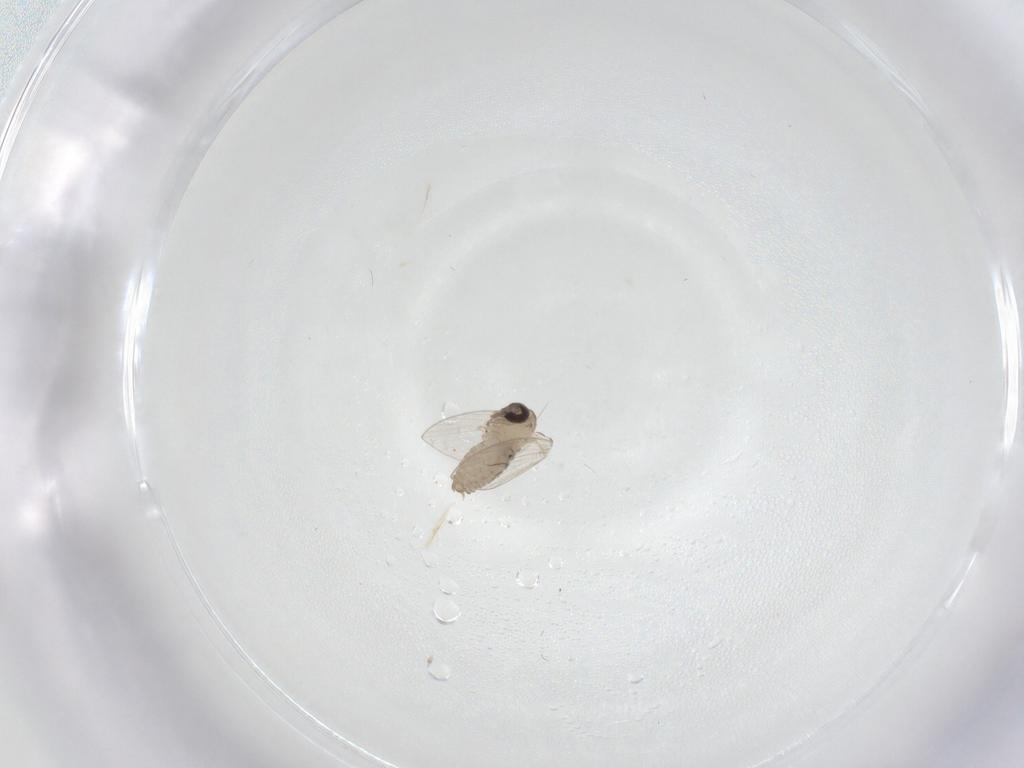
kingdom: Animalia
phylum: Arthropoda
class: Insecta
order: Diptera
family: Psychodidae
